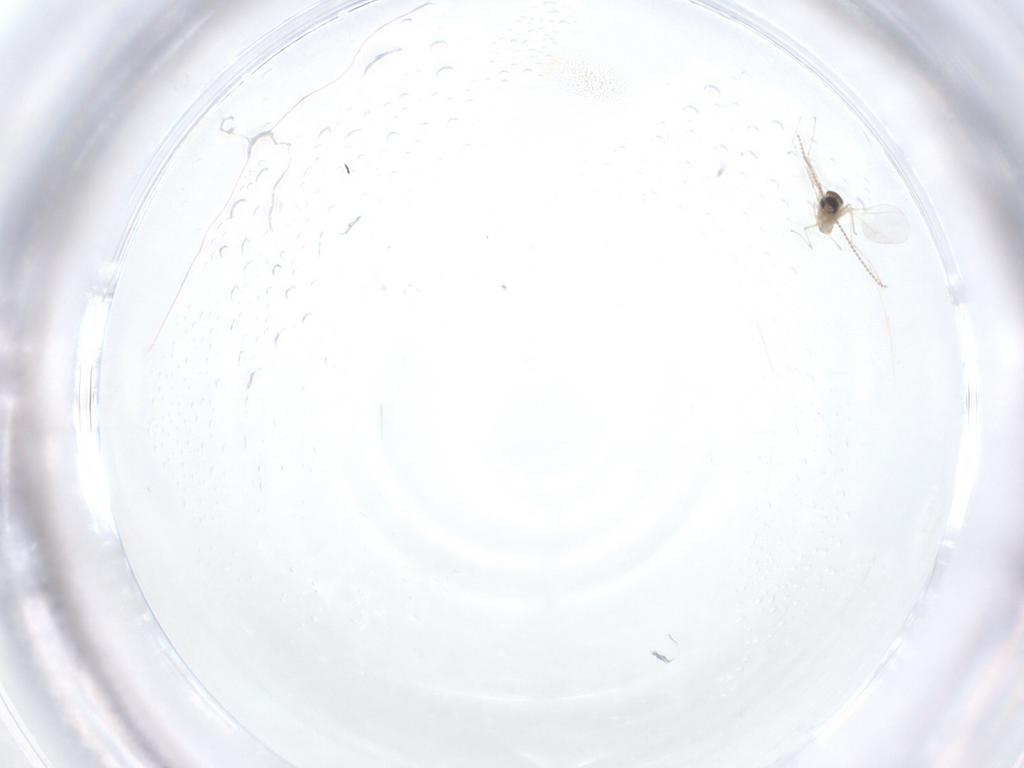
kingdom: Animalia
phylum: Arthropoda
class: Insecta
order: Diptera
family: Cecidomyiidae
